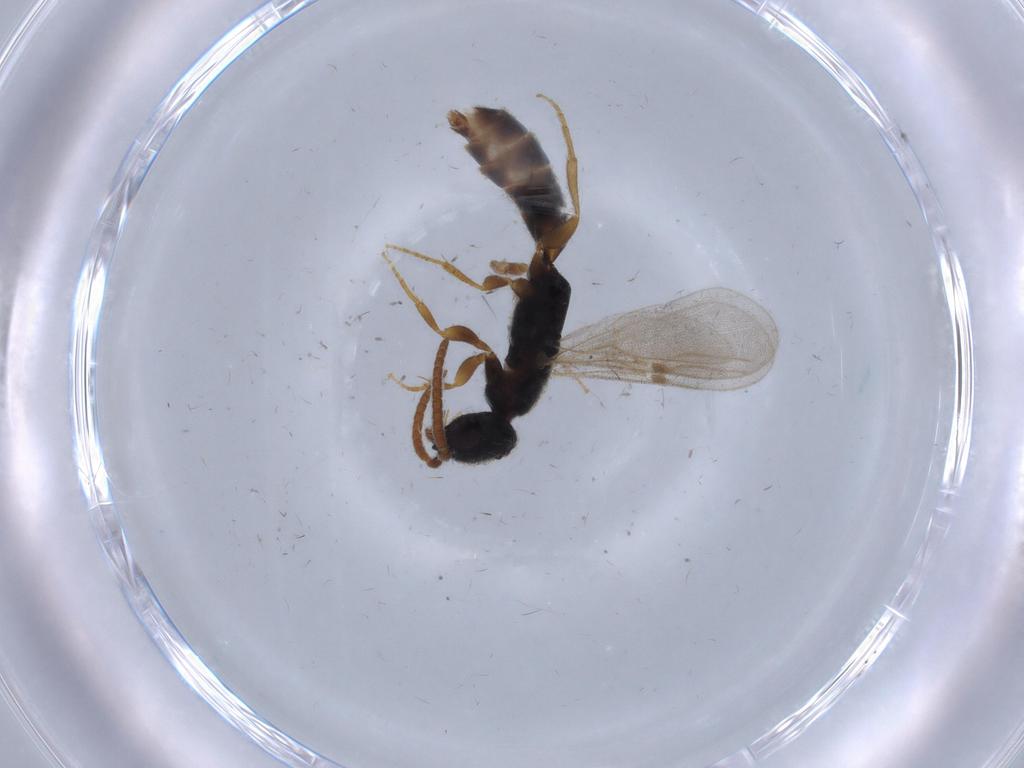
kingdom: Animalia
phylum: Arthropoda
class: Insecta
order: Hymenoptera
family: Bethylidae
